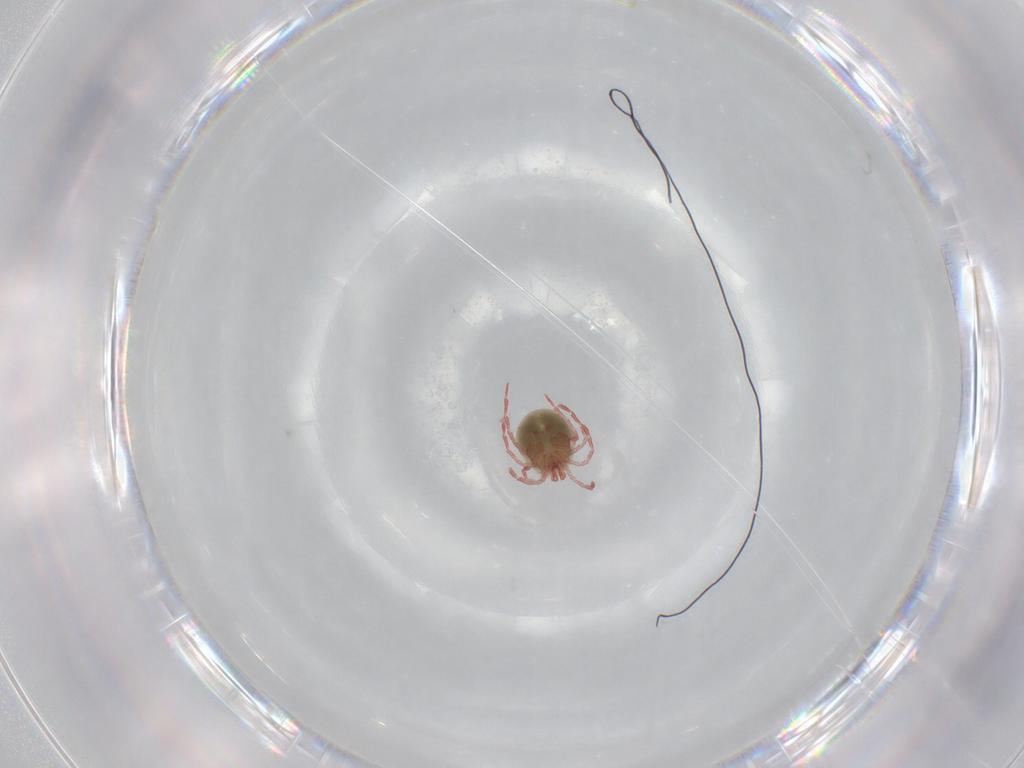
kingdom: Animalia
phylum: Arthropoda
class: Arachnida
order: Trombidiformes
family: Pionidae
